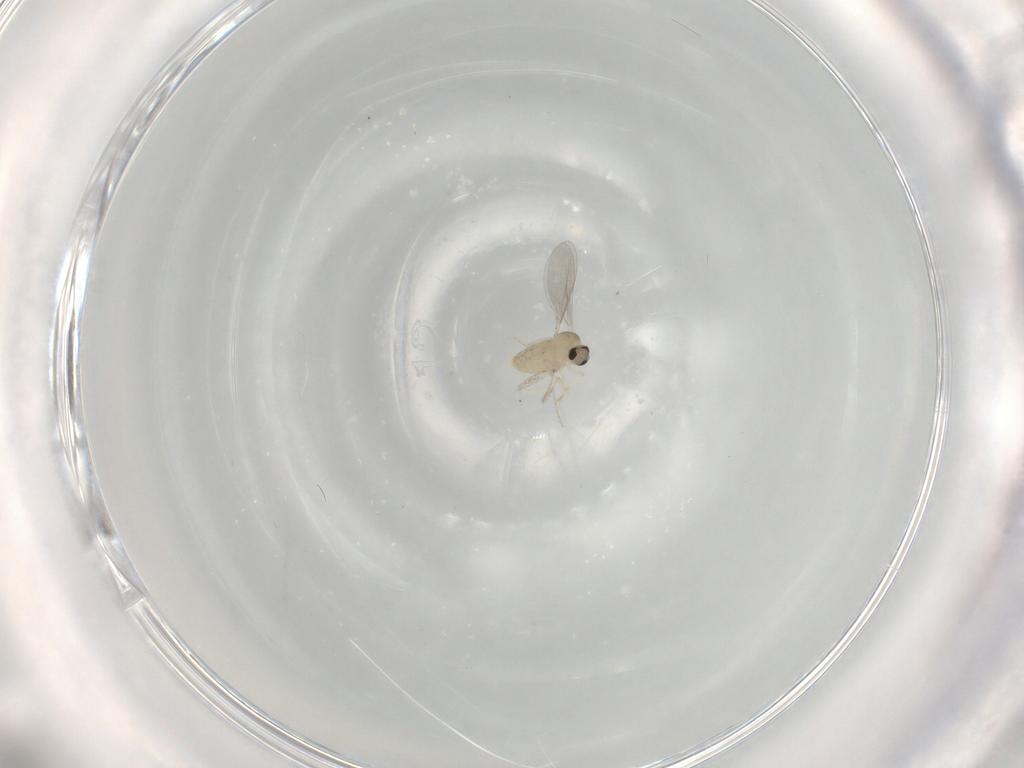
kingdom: Animalia
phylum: Arthropoda
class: Insecta
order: Diptera
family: Cecidomyiidae
